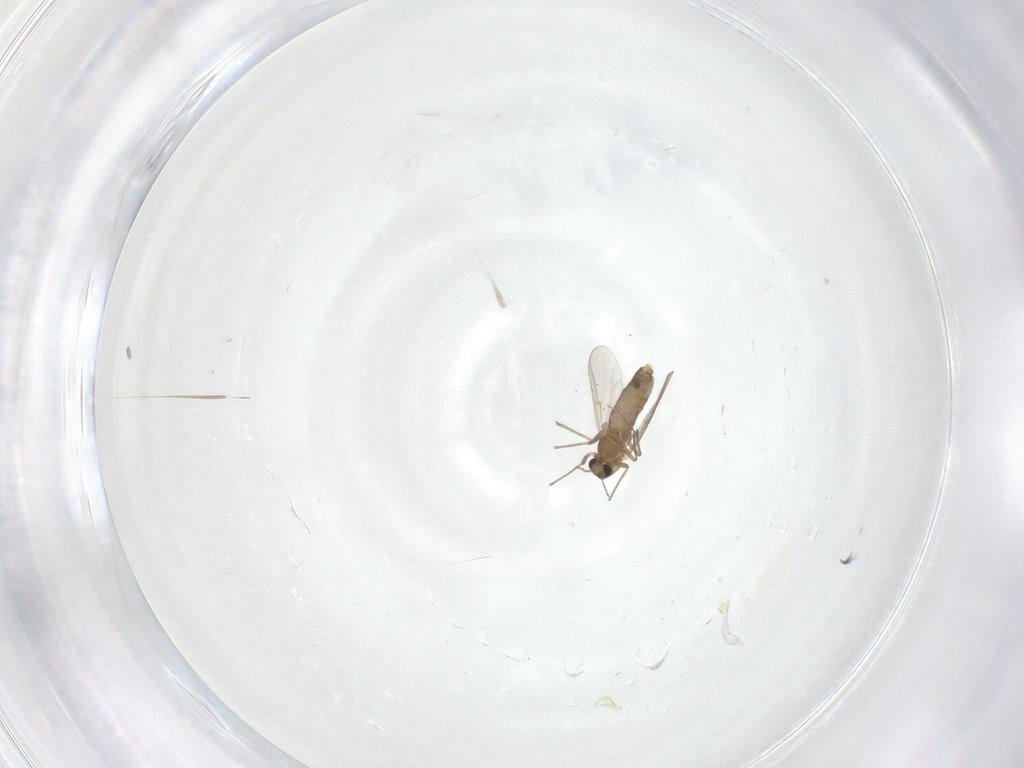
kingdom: Animalia
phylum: Arthropoda
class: Insecta
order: Diptera
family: Chironomidae
